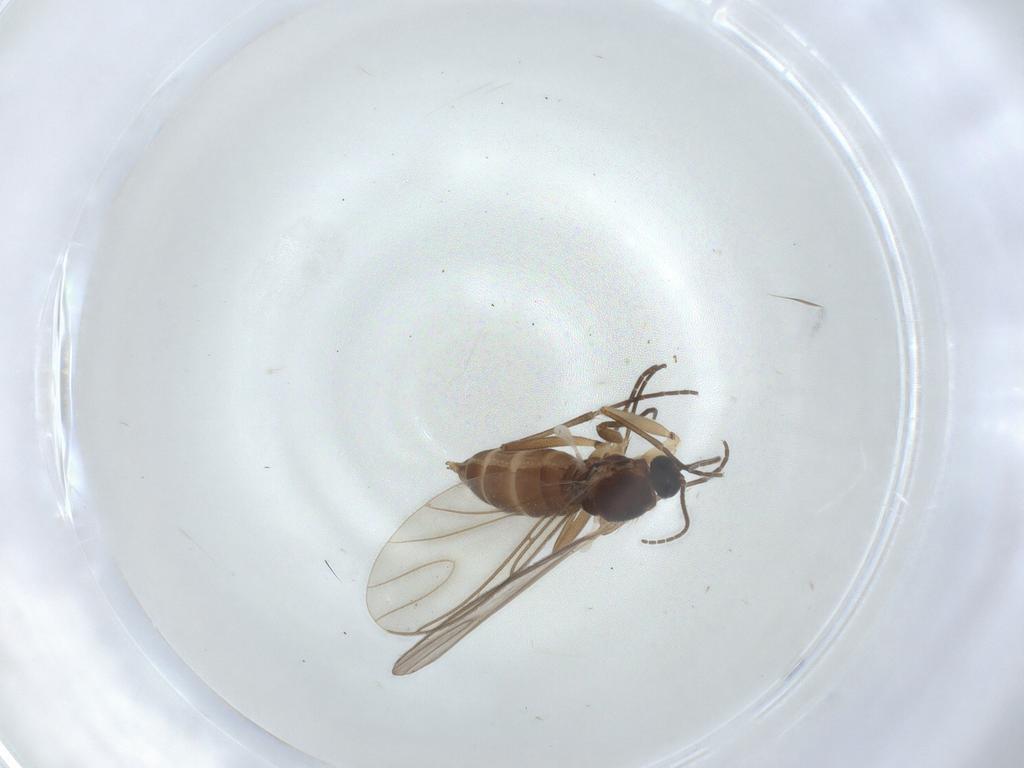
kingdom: Animalia
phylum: Arthropoda
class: Insecta
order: Diptera
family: Sciaridae
